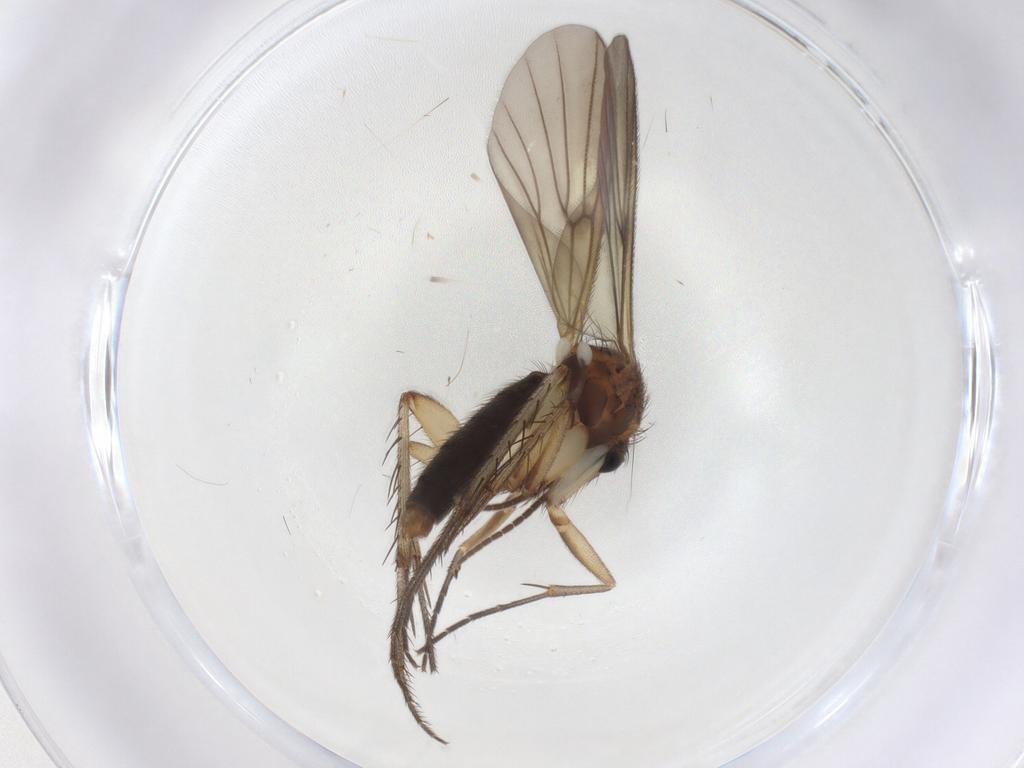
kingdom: Animalia
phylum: Arthropoda
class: Insecta
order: Diptera
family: Mycetophilidae
